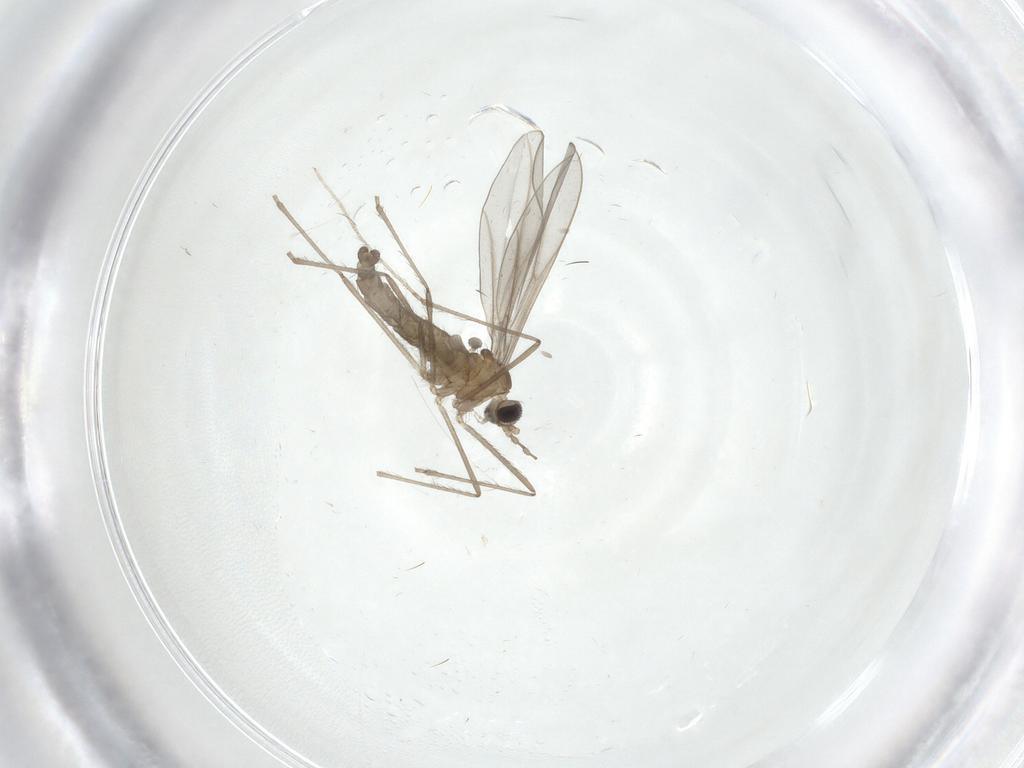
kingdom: Animalia
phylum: Arthropoda
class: Insecta
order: Diptera
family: Cecidomyiidae
